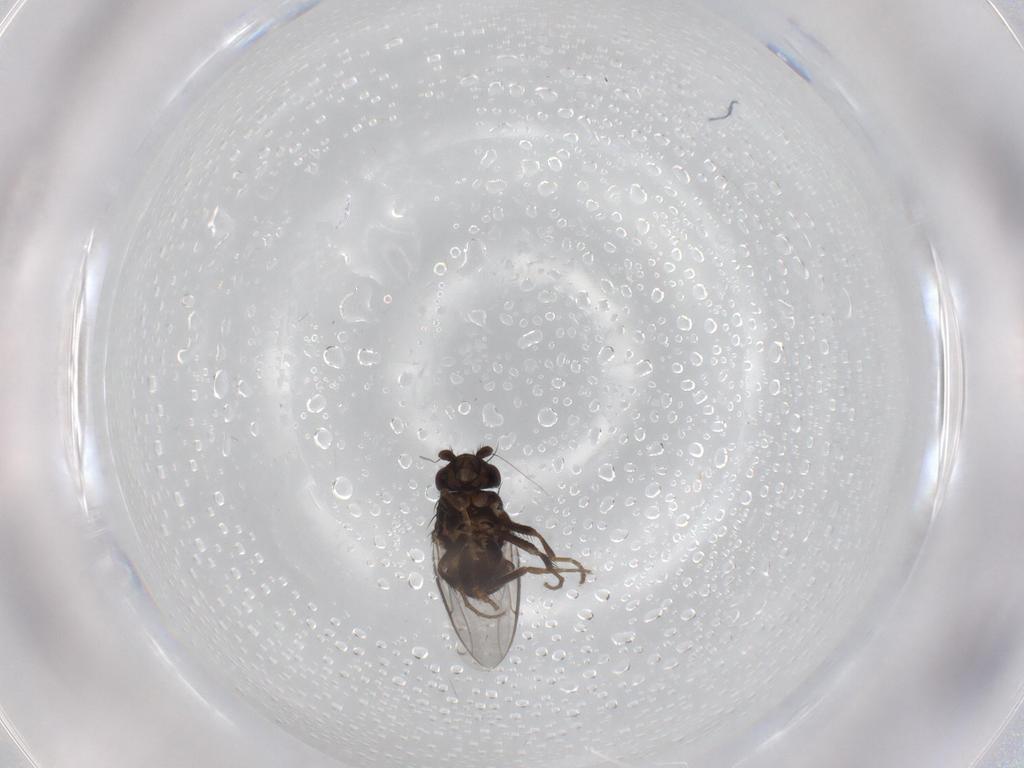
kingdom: Animalia
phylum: Arthropoda
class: Insecta
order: Diptera
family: Sphaeroceridae
